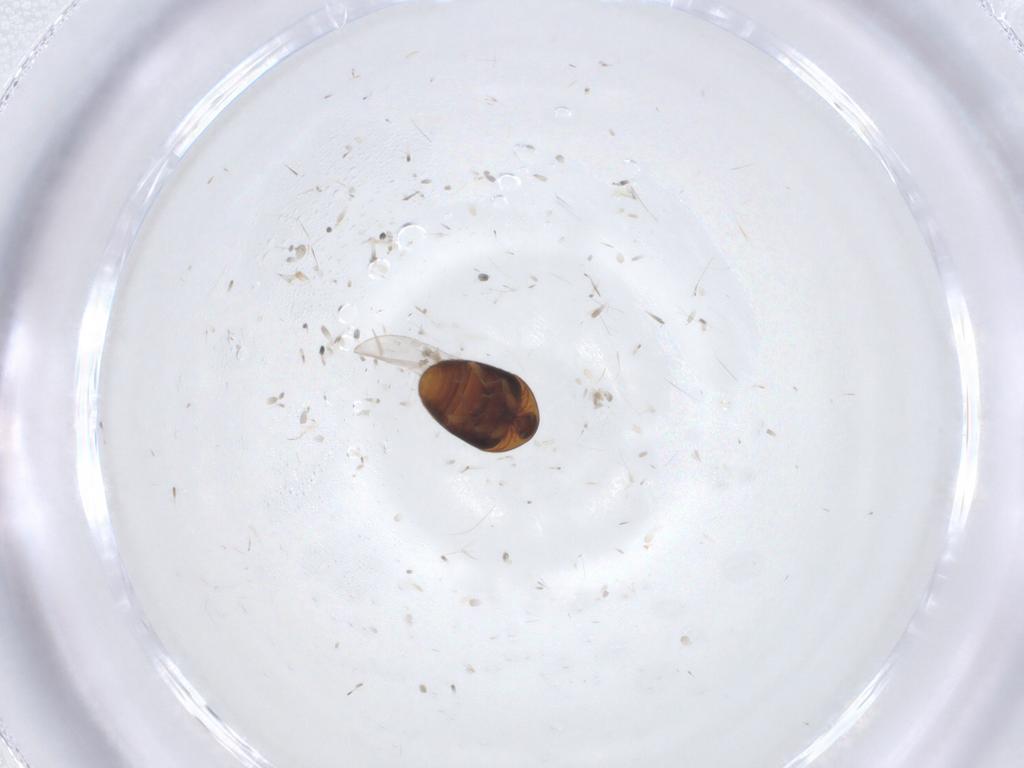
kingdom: Animalia
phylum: Arthropoda
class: Insecta
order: Coleoptera
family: Corylophidae
